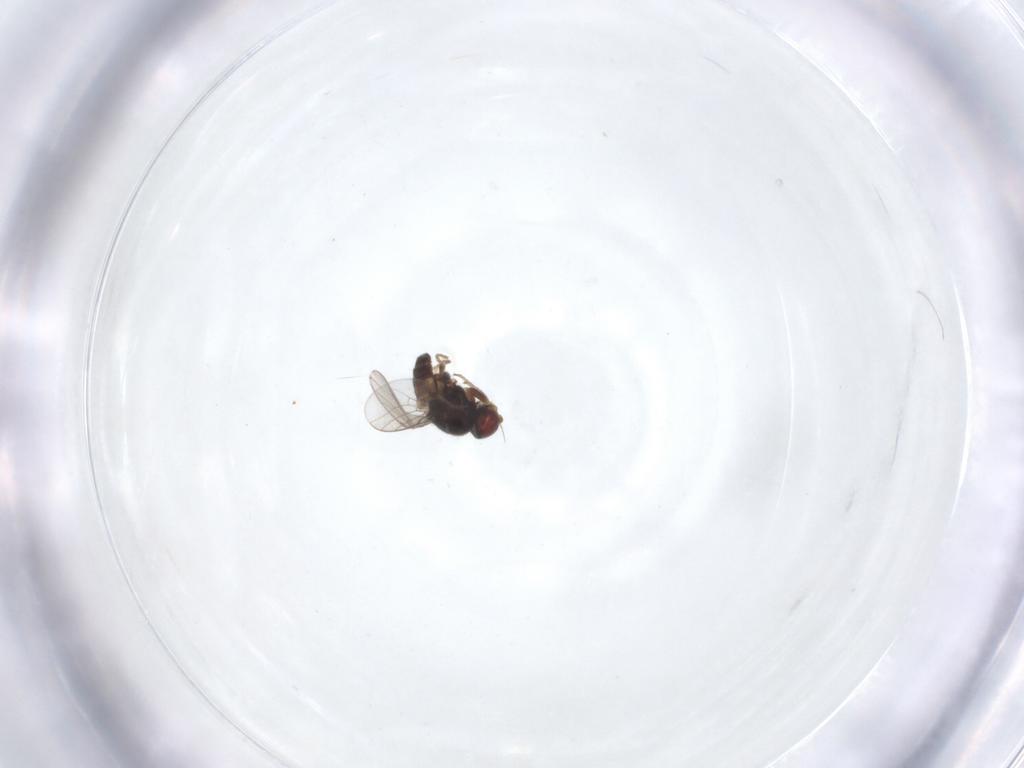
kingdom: Animalia
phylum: Arthropoda
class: Insecta
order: Diptera
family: Chloropidae
